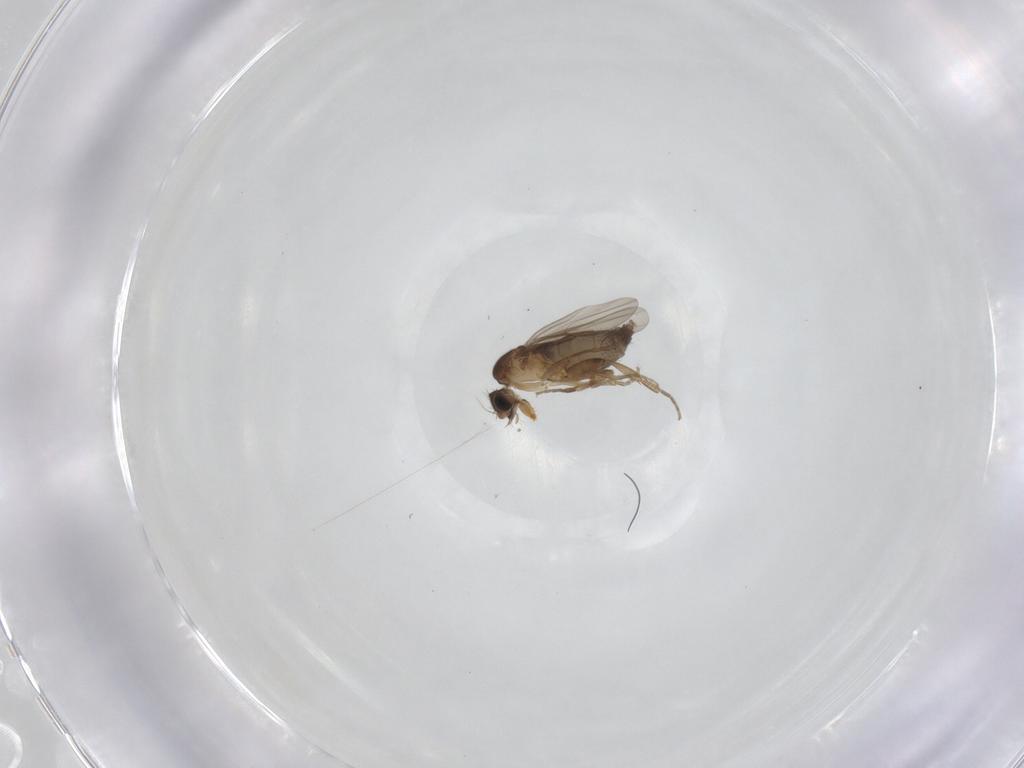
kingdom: Animalia
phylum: Arthropoda
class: Insecta
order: Diptera
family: Phoridae
